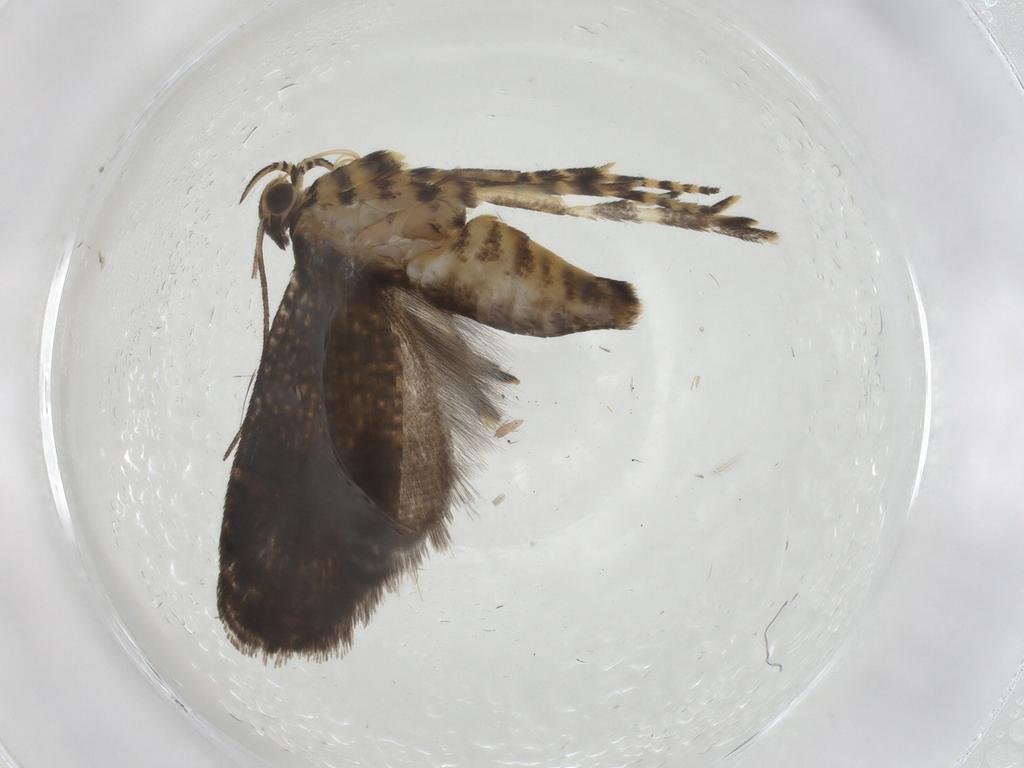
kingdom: Animalia
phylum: Arthropoda
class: Insecta
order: Lepidoptera
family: Geometridae
